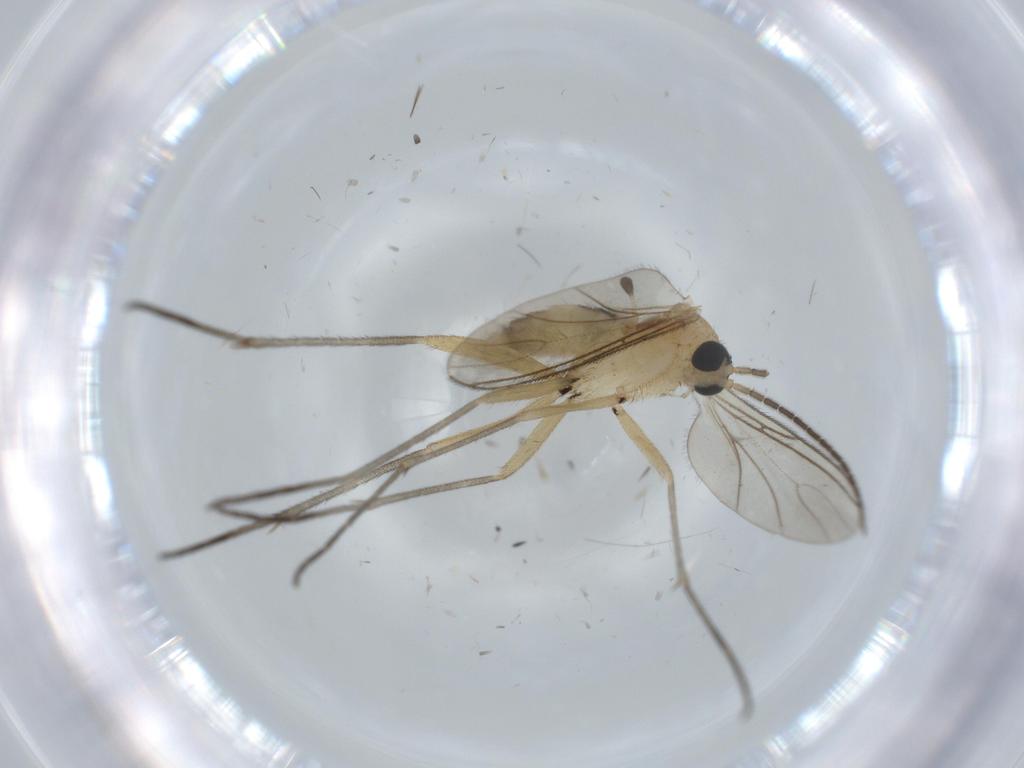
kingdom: Animalia
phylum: Arthropoda
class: Insecta
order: Diptera
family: Sciaridae
